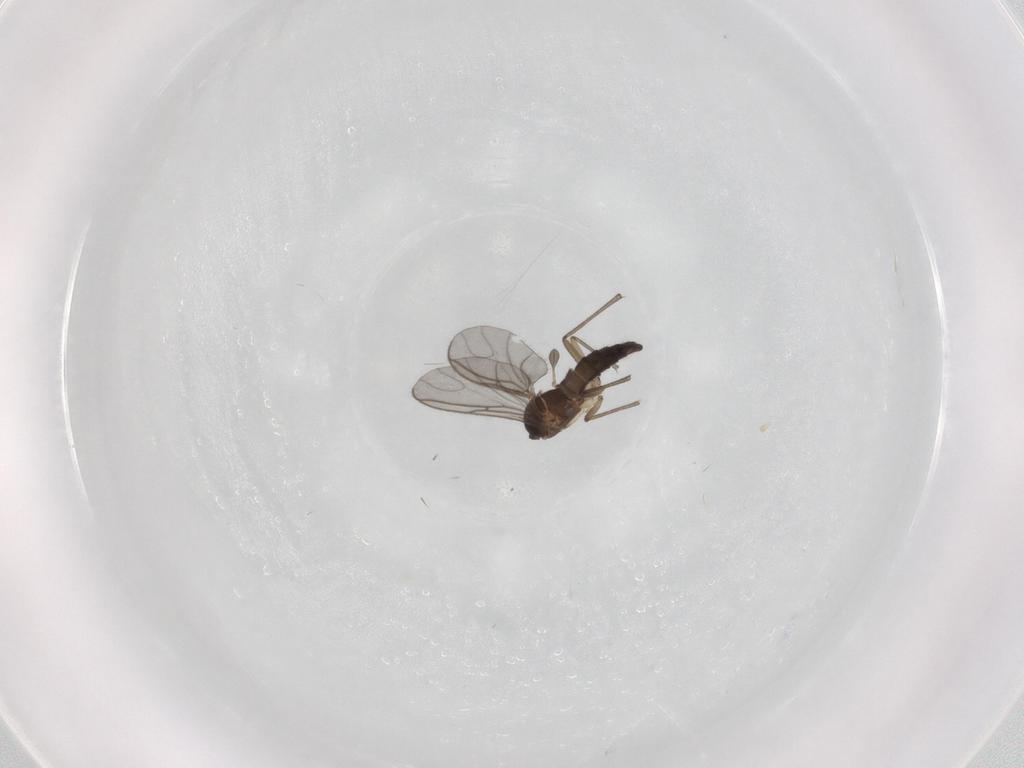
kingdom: Animalia
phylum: Arthropoda
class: Insecta
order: Diptera
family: Sciaridae
